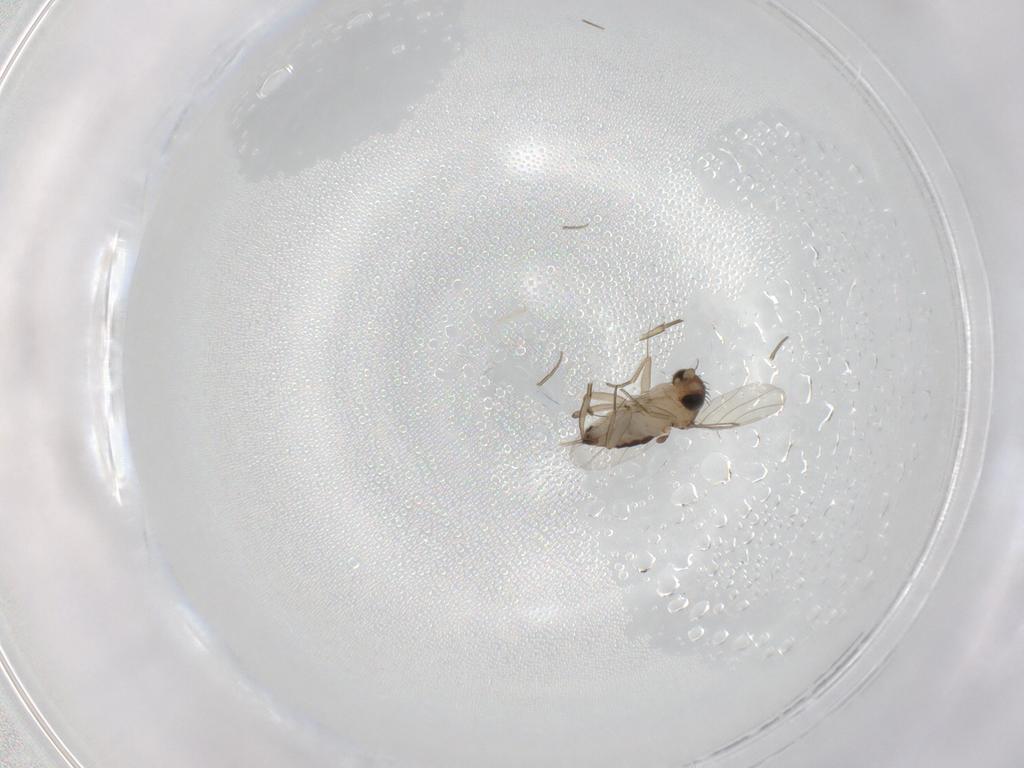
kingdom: Animalia
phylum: Arthropoda
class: Insecta
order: Diptera
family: Phoridae
